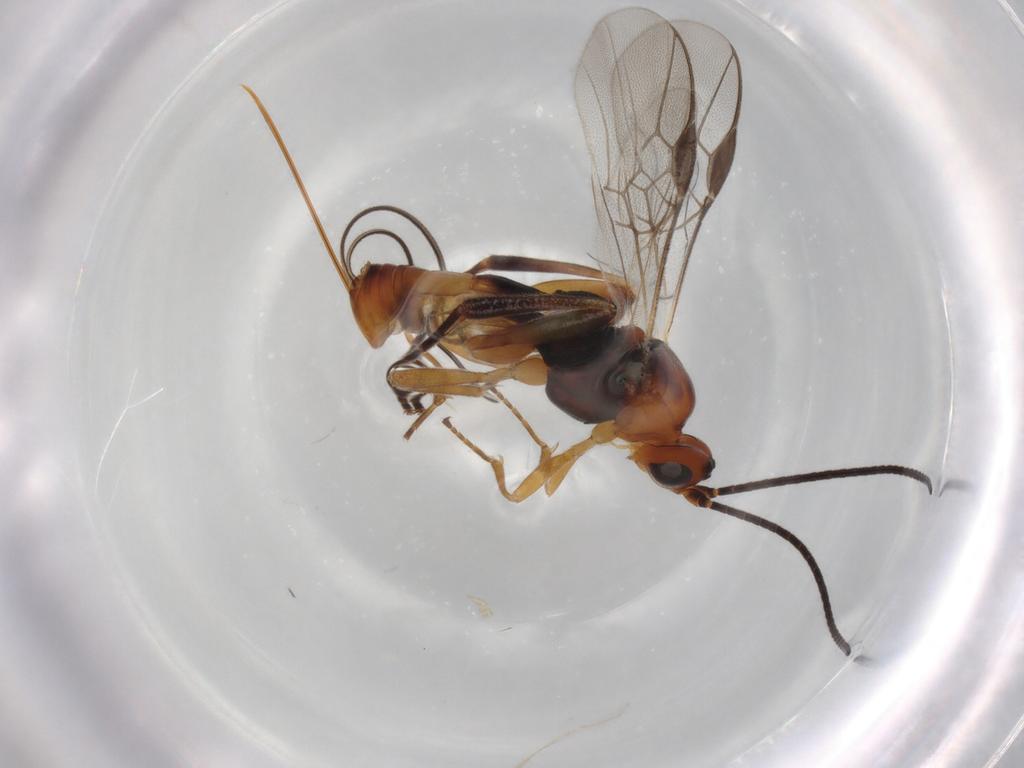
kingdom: Animalia
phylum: Arthropoda
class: Insecta
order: Hymenoptera
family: Braconidae
